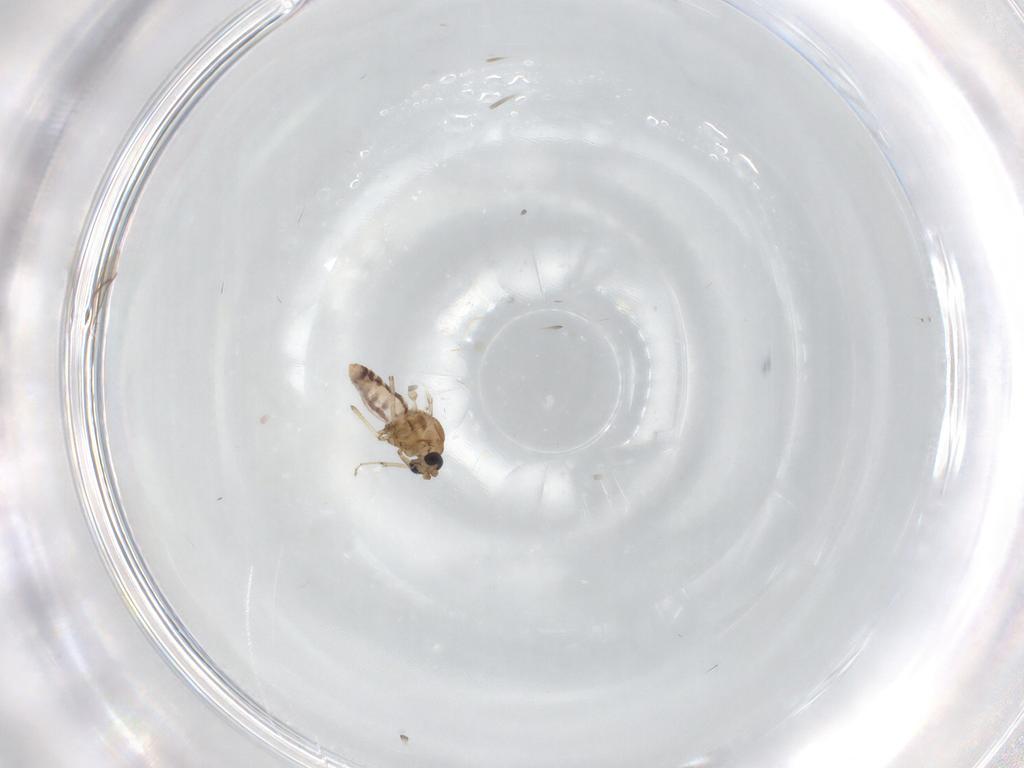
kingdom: Animalia
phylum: Arthropoda
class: Insecta
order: Diptera
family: Ceratopogonidae
